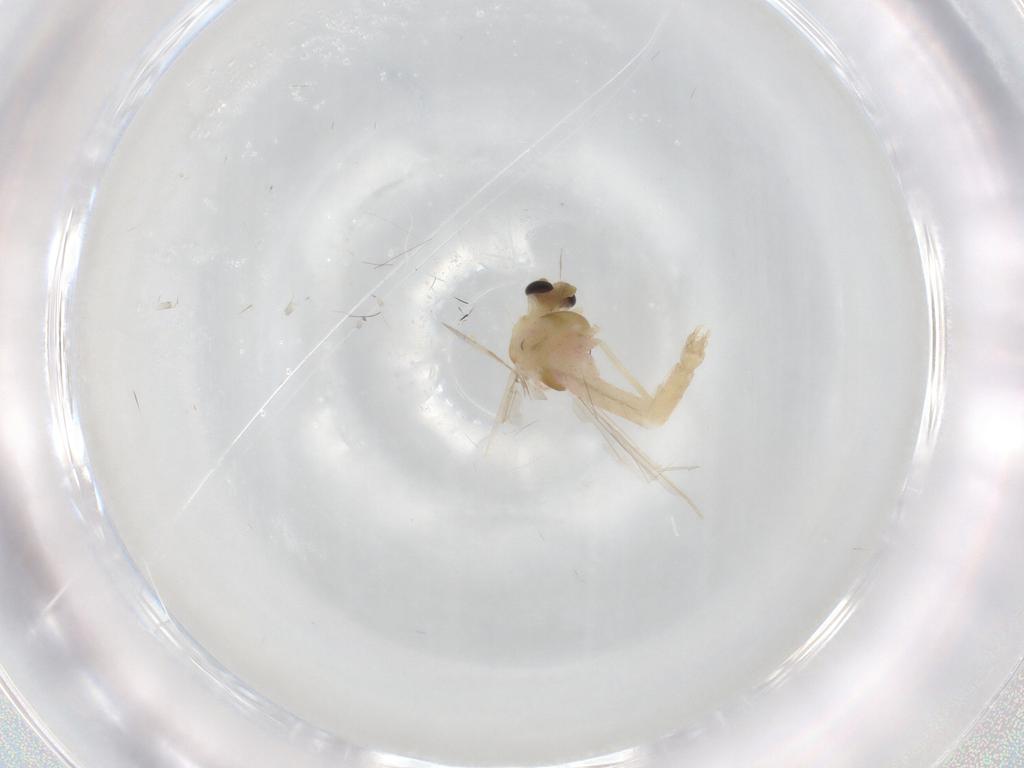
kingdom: Animalia
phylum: Arthropoda
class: Insecta
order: Diptera
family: Chironomidae
